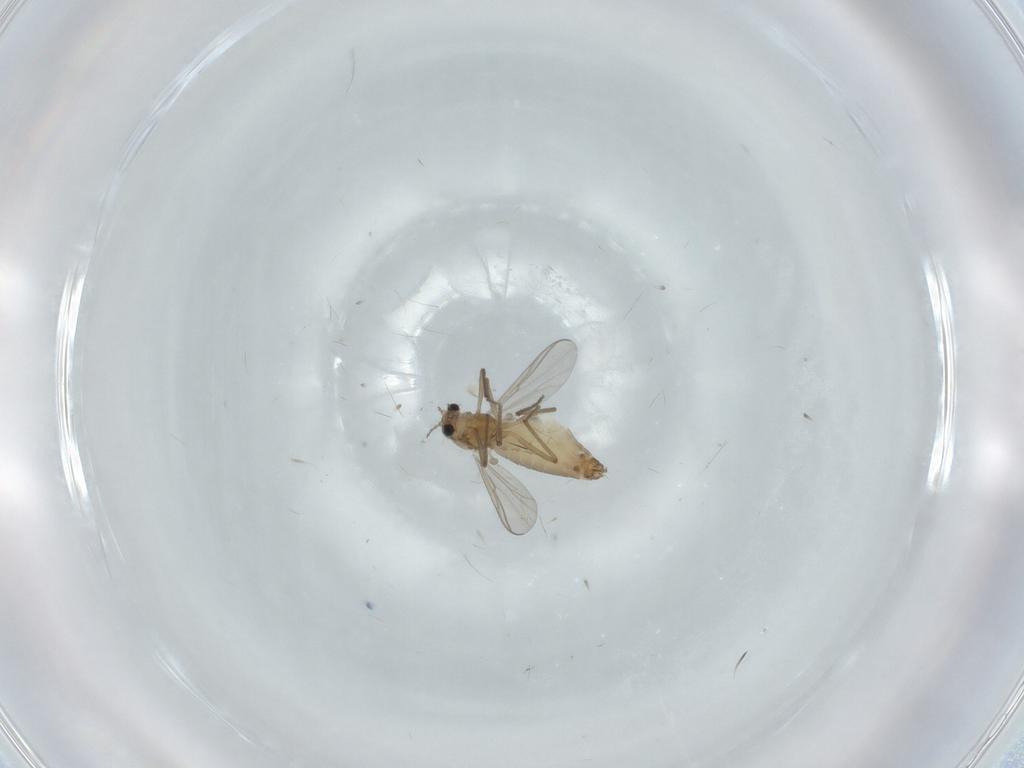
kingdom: Animalia
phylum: Arthropoda
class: Insecta
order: Diptera
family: Chironomidae
